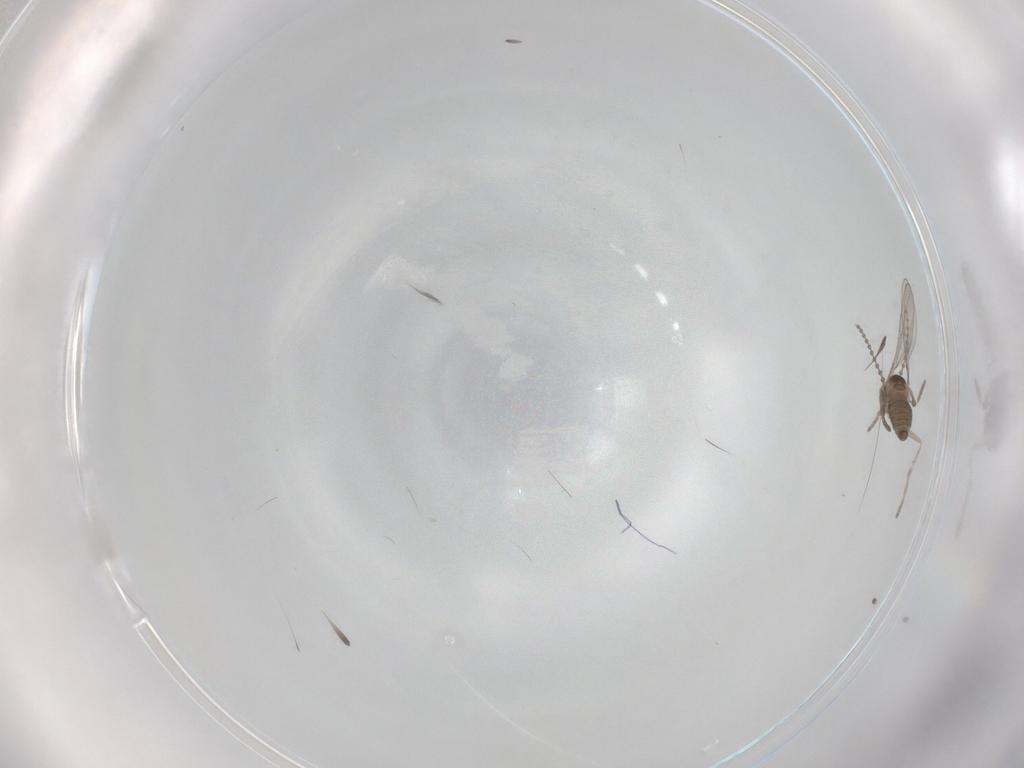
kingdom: Animalia
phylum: Arthropoda
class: Insecta
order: Diptera
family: Cecidomyiidae
